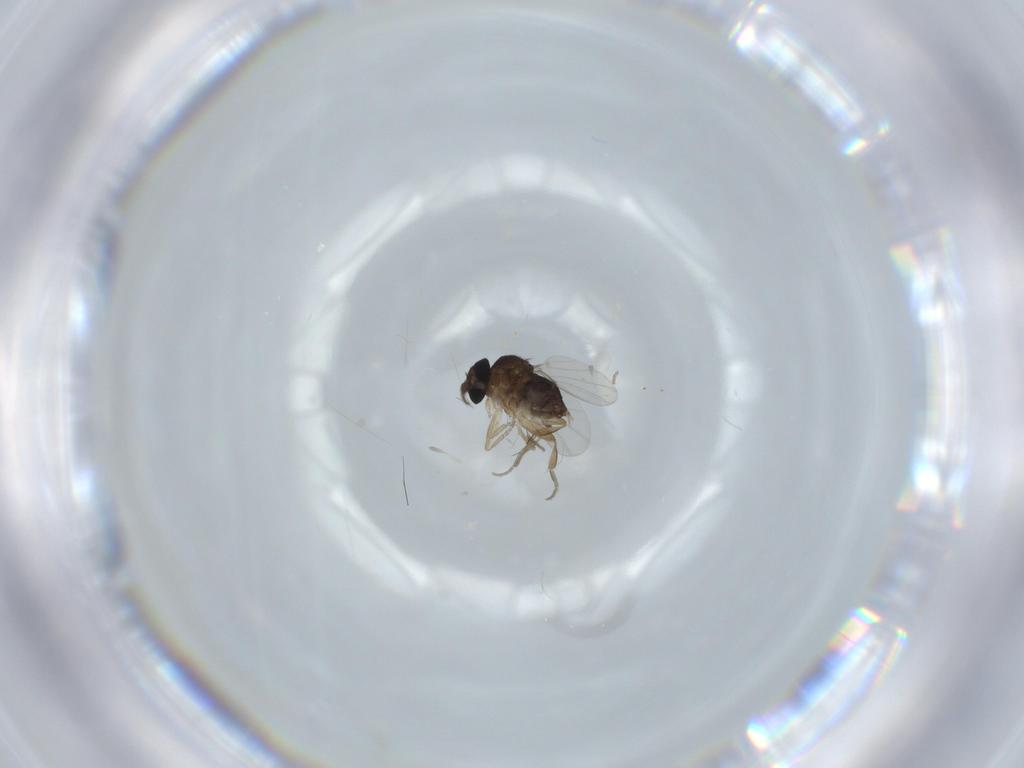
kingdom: Animalia
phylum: Arthropoda
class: Insecta
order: Diptera
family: Phoridae
